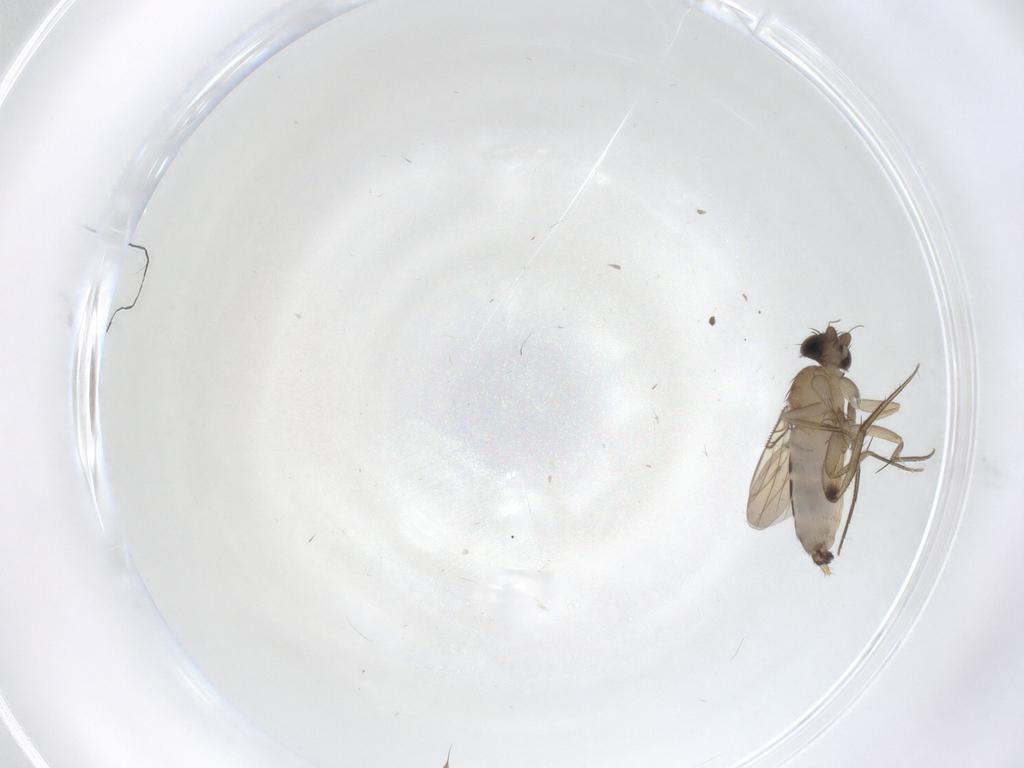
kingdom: Animalia
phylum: Arthropoda
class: Insecta
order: Diptera
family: Phoridae
